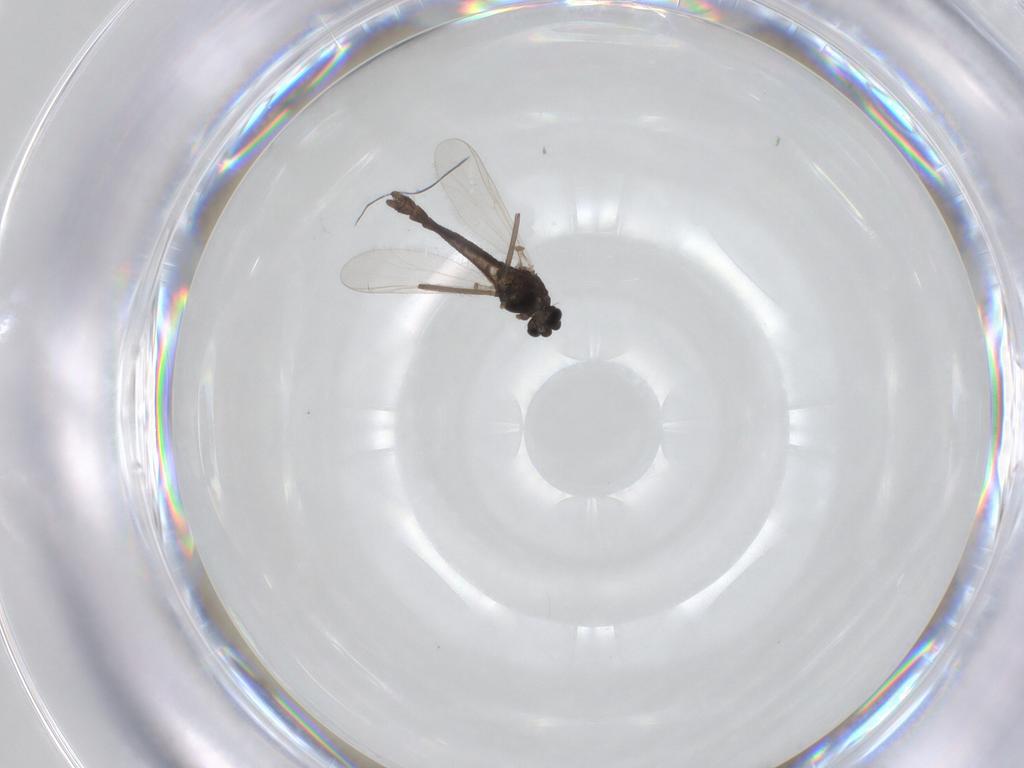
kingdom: Animalia
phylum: Arthropoda
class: Insecta
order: Diptera
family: Chironomidae
